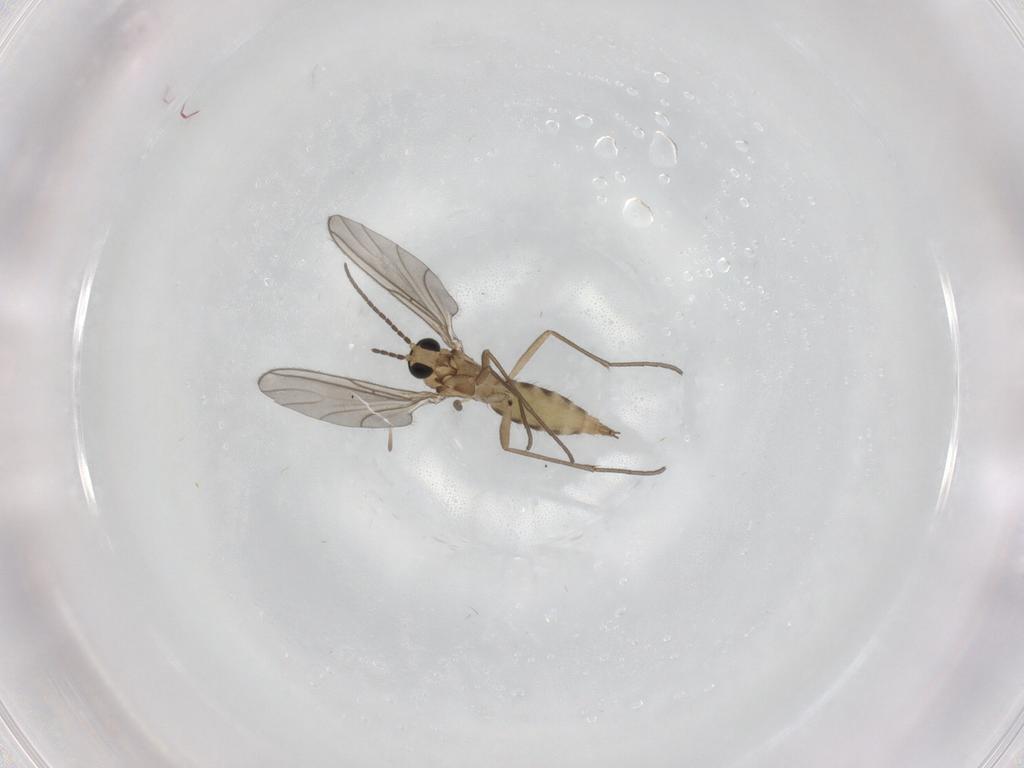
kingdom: Animalia
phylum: Arthropoda
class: Insecta
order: Diptera
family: Sciaridae
